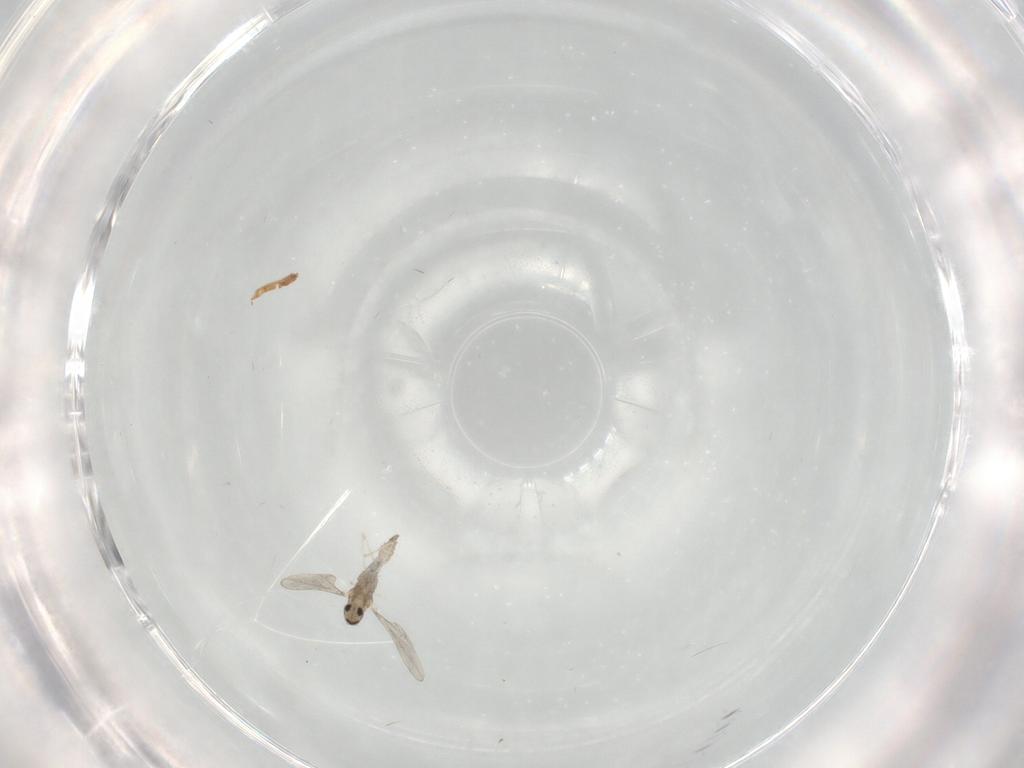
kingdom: Animalia
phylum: Arthropoda
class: Insecta
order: Diptera
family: Cecidomyiidae
